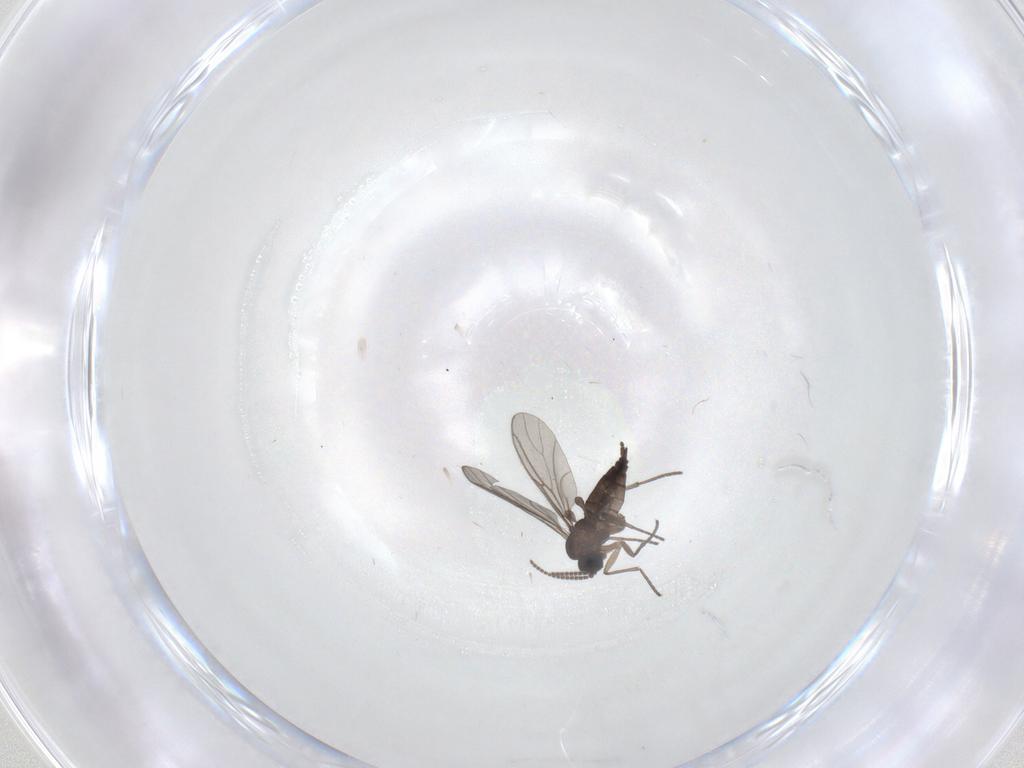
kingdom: Animalia
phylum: Arthropoda
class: Insecta
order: Diptera
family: Sciaridae
